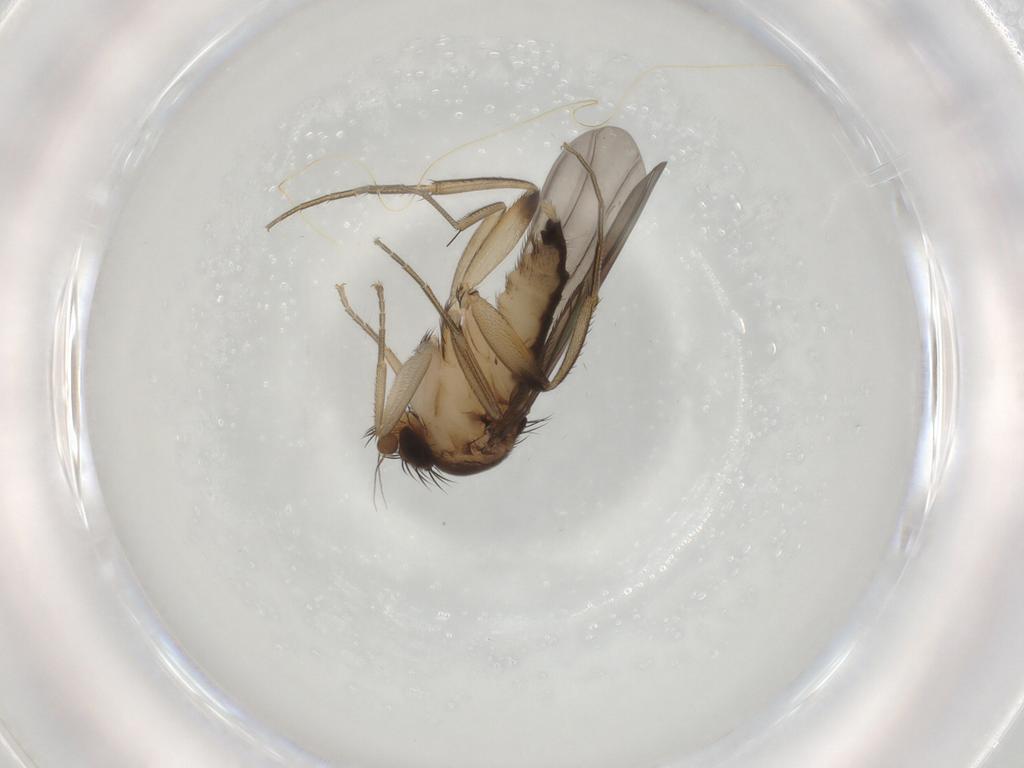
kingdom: Animalia
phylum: Arthropoda
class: Insecta
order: Diptera
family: Phoridae
